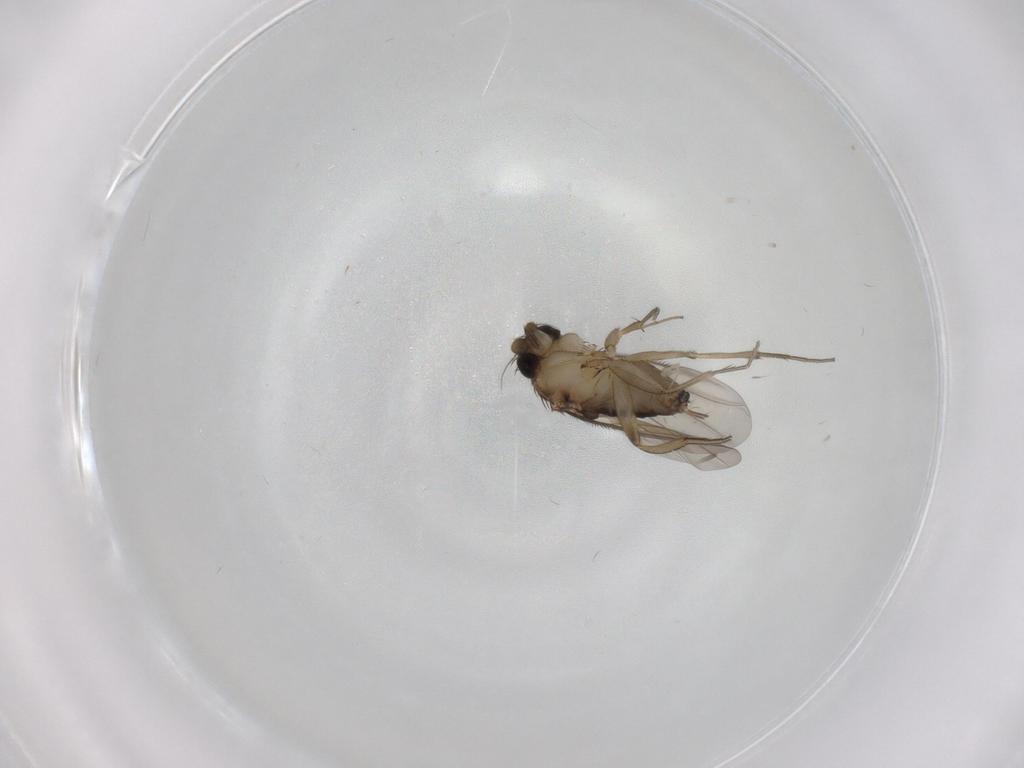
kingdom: Animalia
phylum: Arthropoda
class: Insecta
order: Diptera
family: Phoridae
